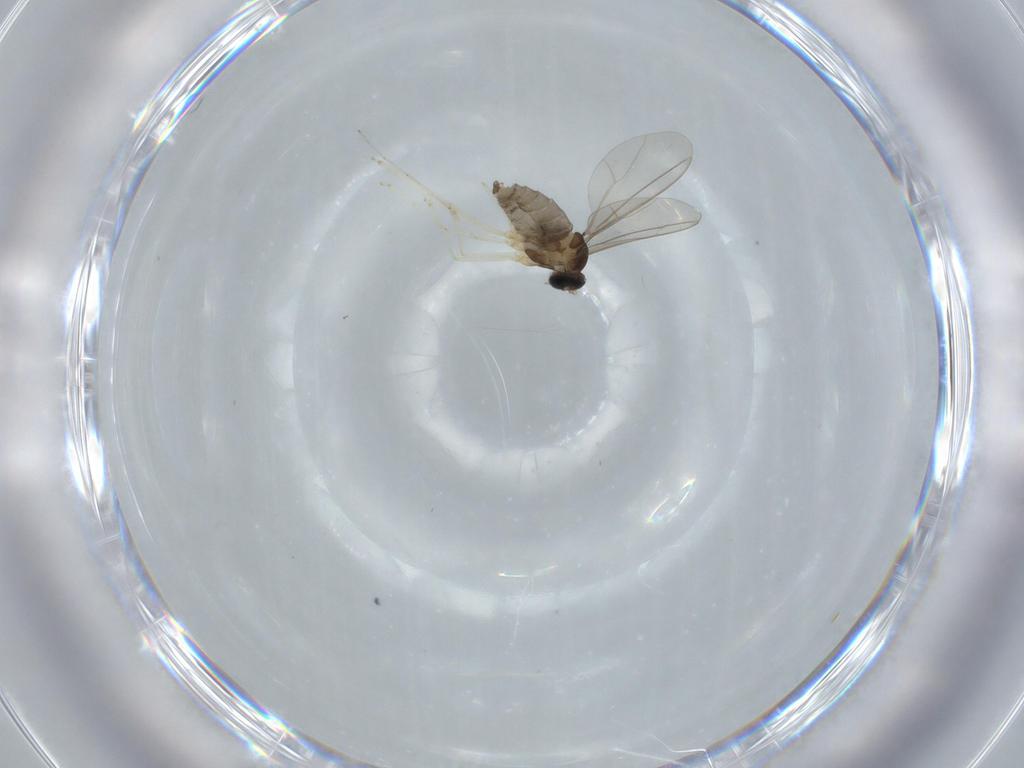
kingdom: Animalia
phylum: Arthropoda
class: Insecta
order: Diptera
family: Cecidomyiidae
